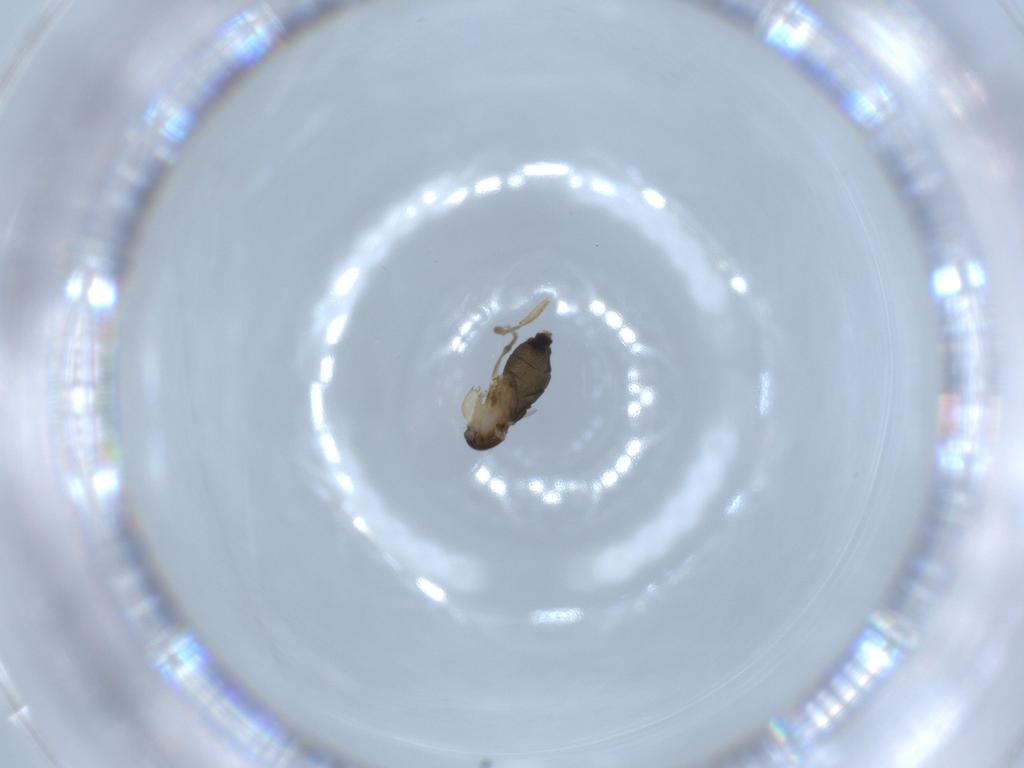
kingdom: Animalia
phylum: Arthropoda
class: Insecta
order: Diptera
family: Phoridae
